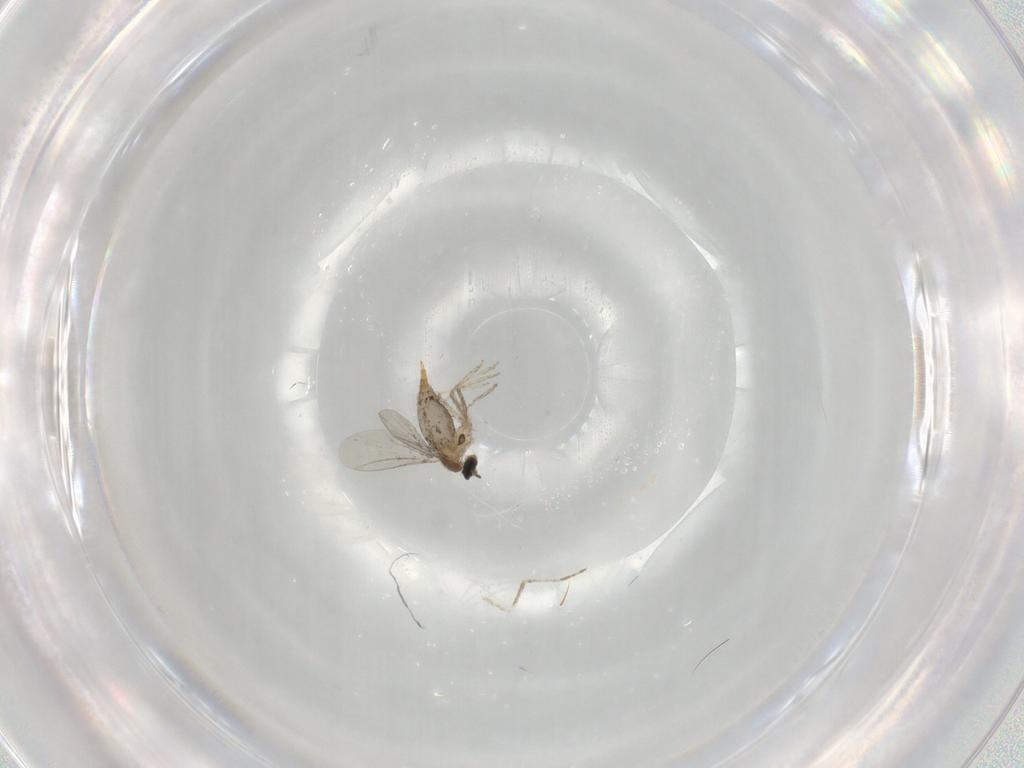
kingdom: Animalia
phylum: Arthropoda
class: Insecta
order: Diptera
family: Cecidomyiidae
